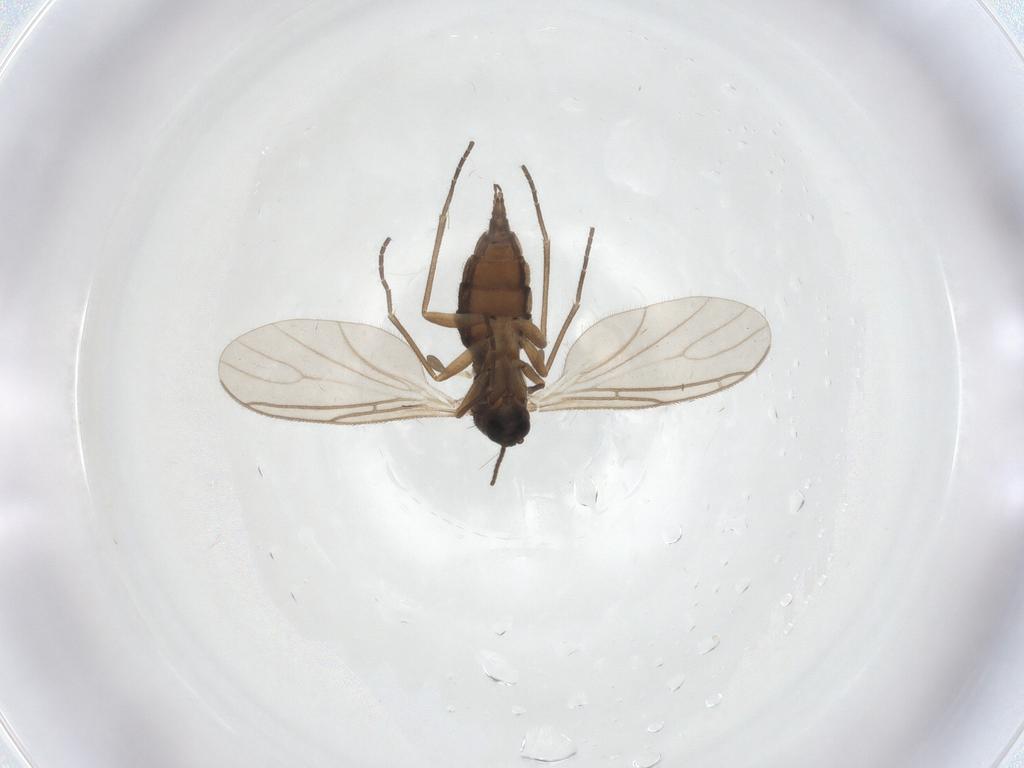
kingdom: Animalia
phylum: Arthropoda
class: Insecta
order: Diptera
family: Sciaridae
